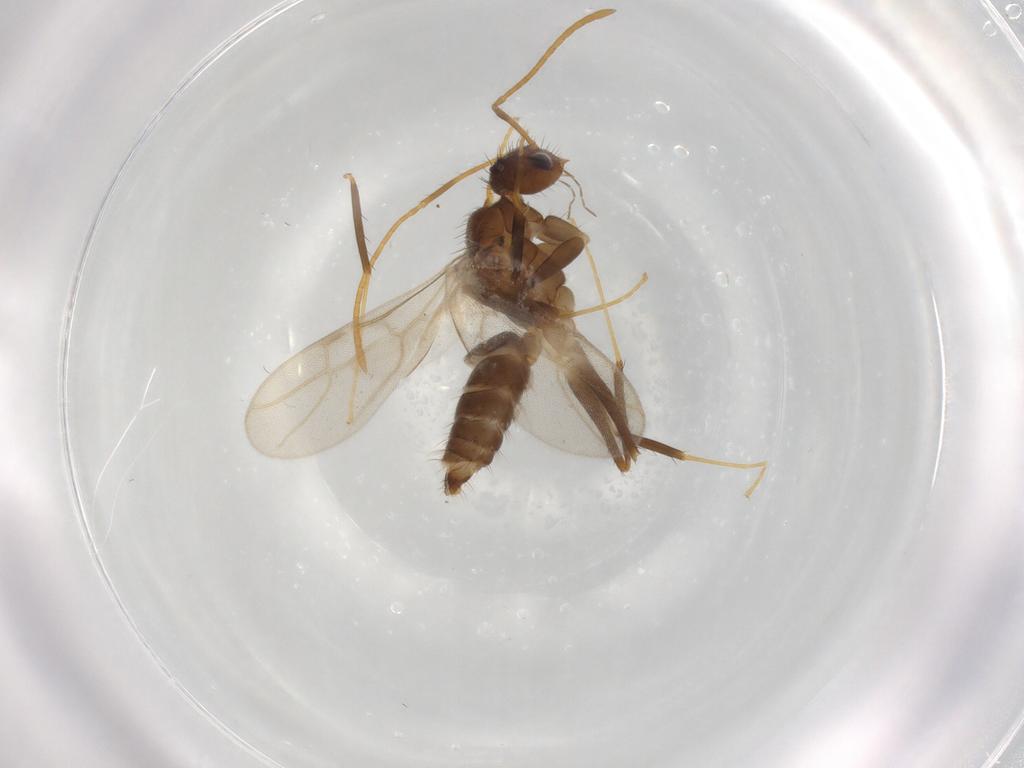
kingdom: Animalia
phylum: Arthropoda
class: Insecta
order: Hymenoptera
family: Formicidae
